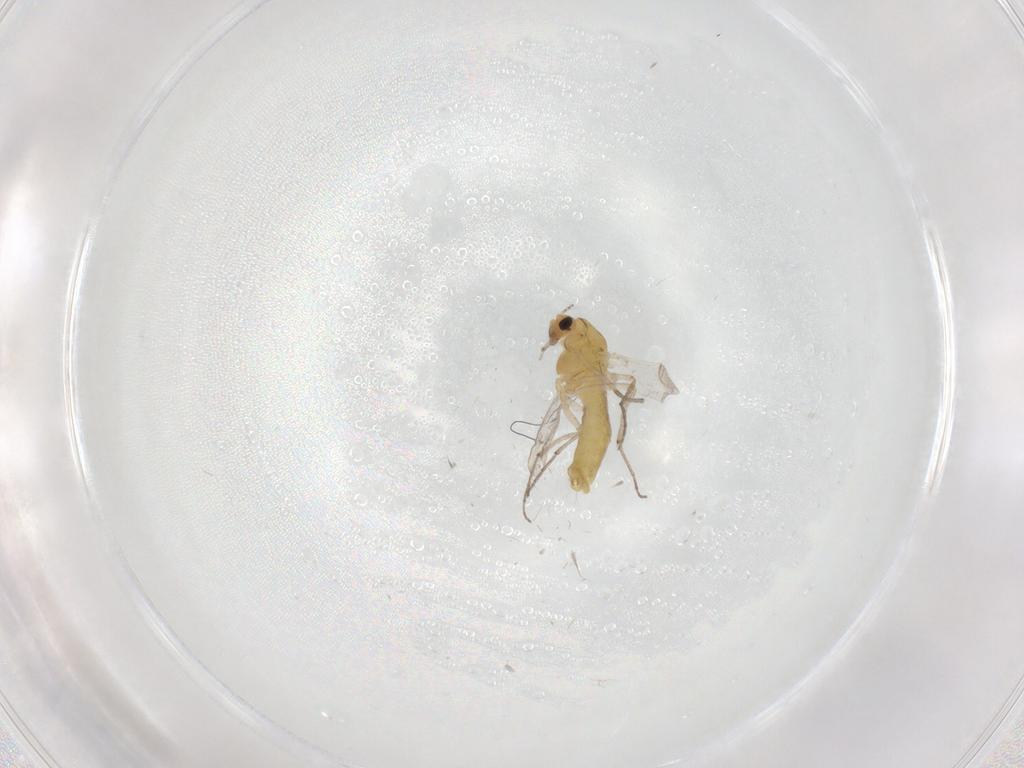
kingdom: Animalia
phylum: Arthropoda
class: Insecta
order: Diptera
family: Chironomidae
